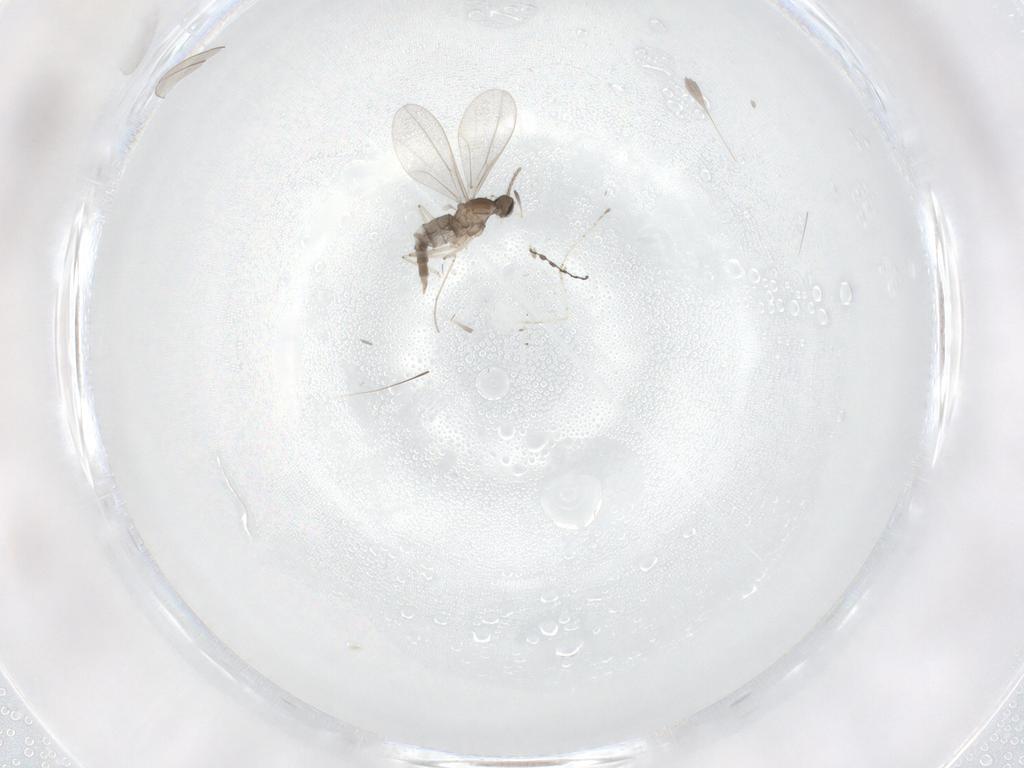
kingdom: Animalia
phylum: Arthropoda
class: Insecta
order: Diptera
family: Cecidomyiidae
